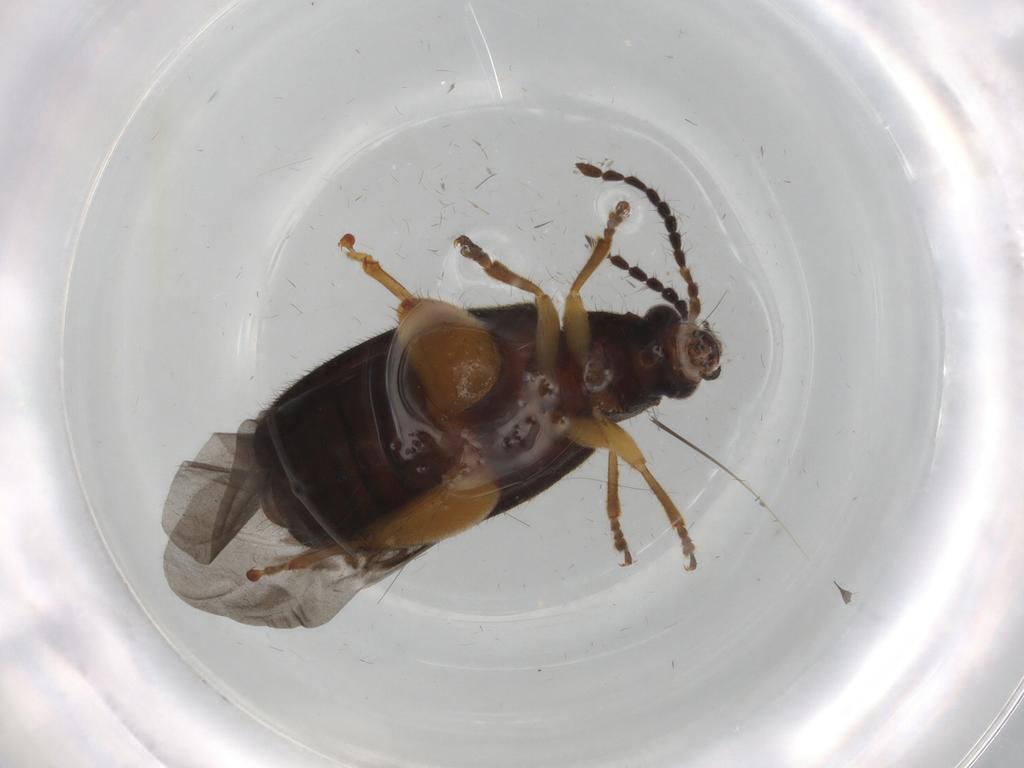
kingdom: Animalia
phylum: Arthropoda
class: Insecta
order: Coleoptera
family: Chrysomelidae
